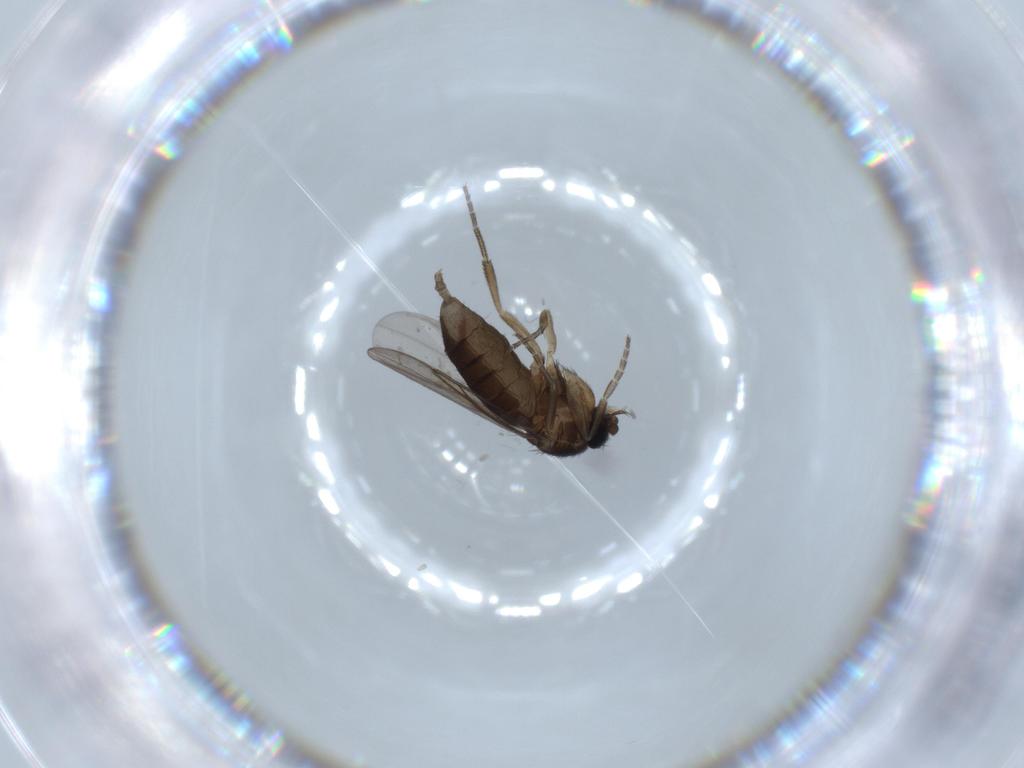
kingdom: Animalia
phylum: Arthropoda
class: Insecta
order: Diptera
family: Phoridae
